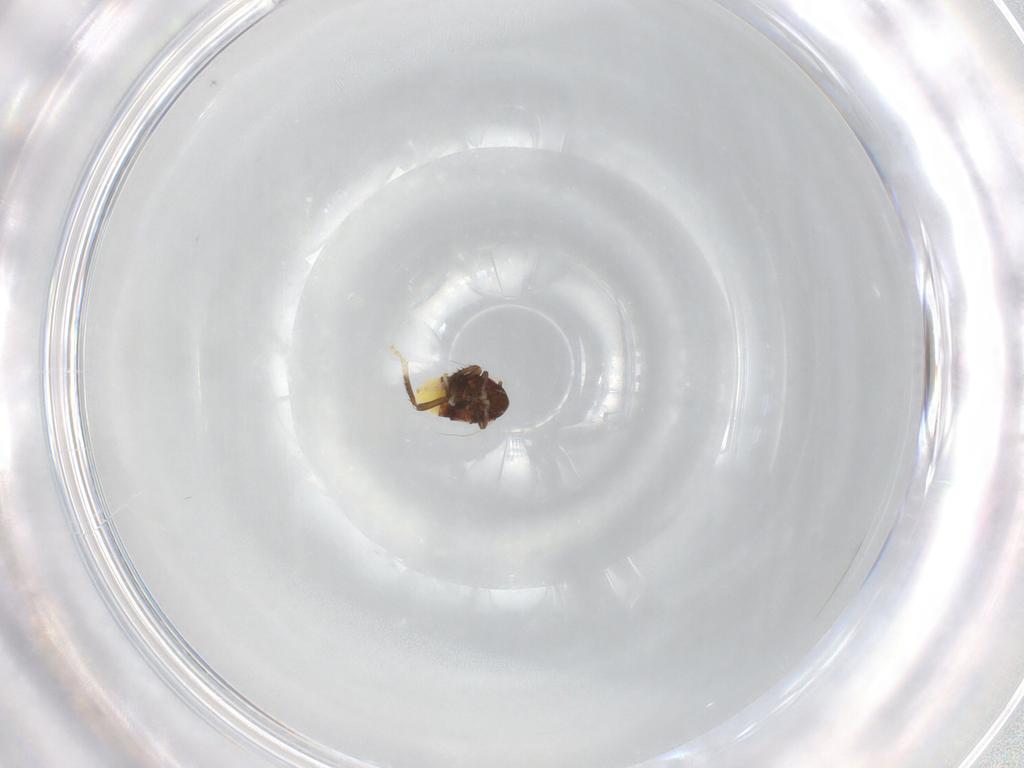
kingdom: Animalia
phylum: Arthropoda
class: Insecta
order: Hemiptera
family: Cicadellidae
